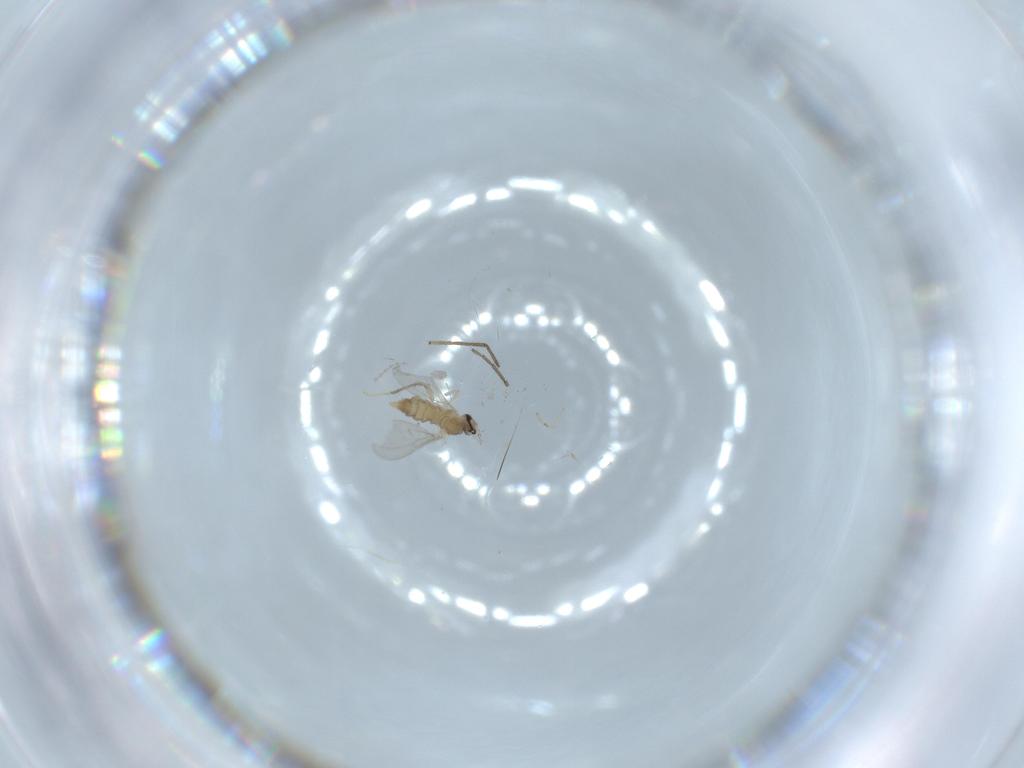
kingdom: Animalia
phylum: Arthropoda
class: Insecta
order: Diptera
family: Cecidomyiidae
